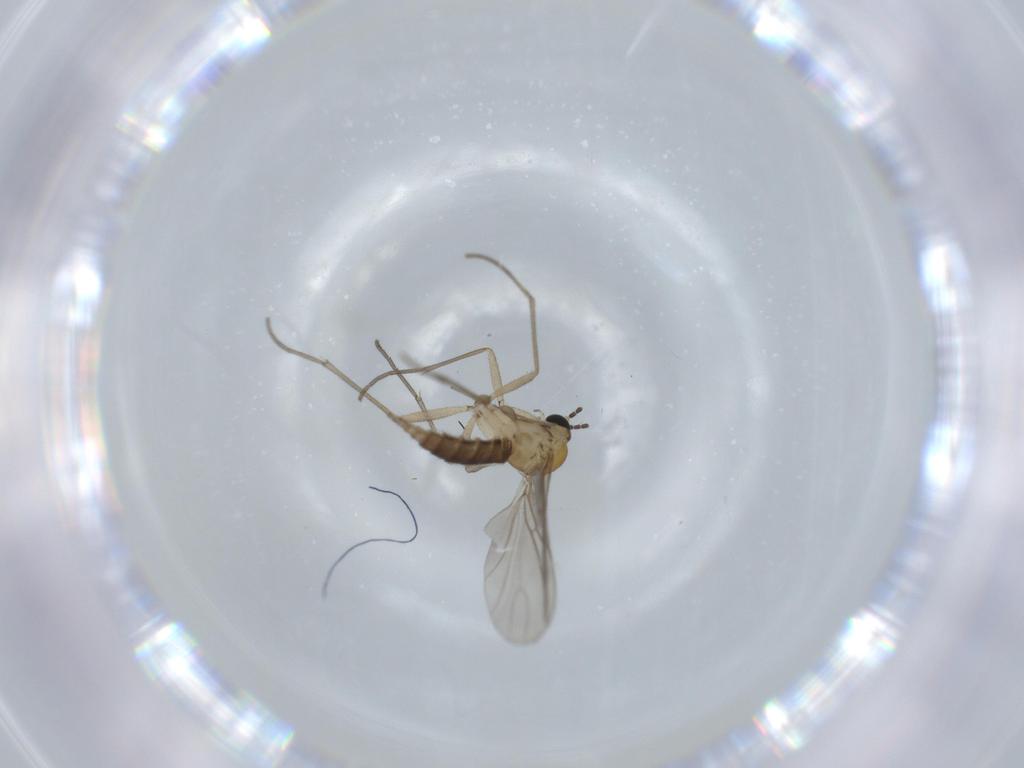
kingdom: Animalia
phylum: Arthropoda
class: Insecta
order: Diptera
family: Sciaridae
